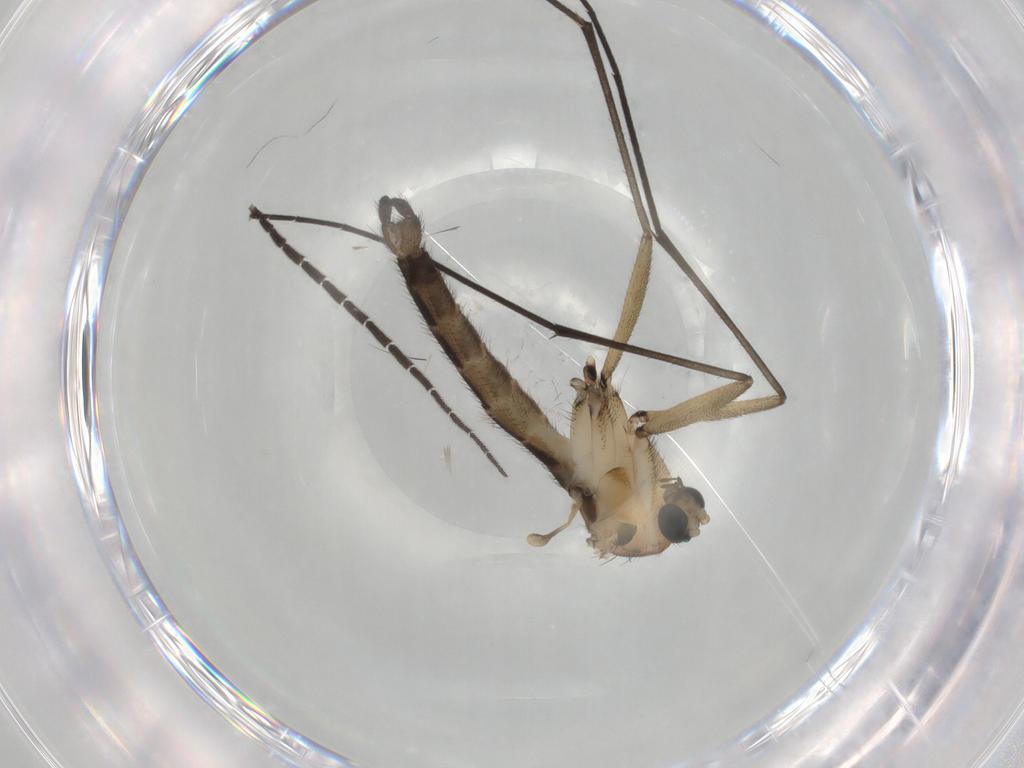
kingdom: Animalia
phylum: Arthropoda
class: Insecta
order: Diptera
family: Sciaridae
